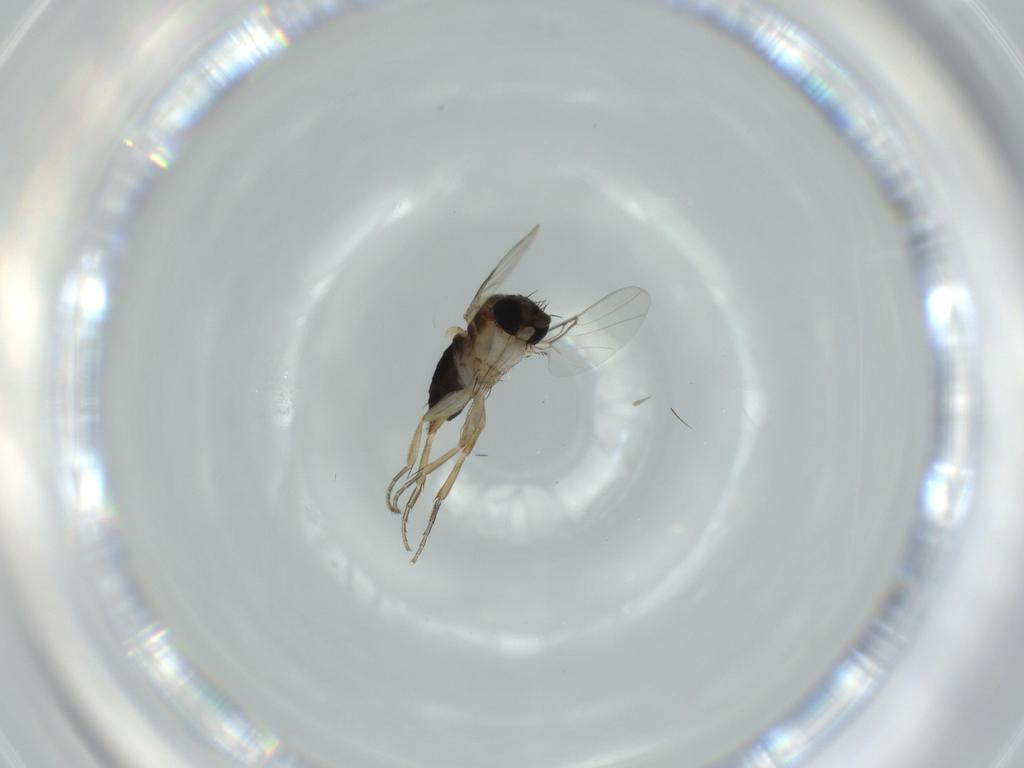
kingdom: Animalia
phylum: Arthropoda
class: Insecta
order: Diptera
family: Phoridae
